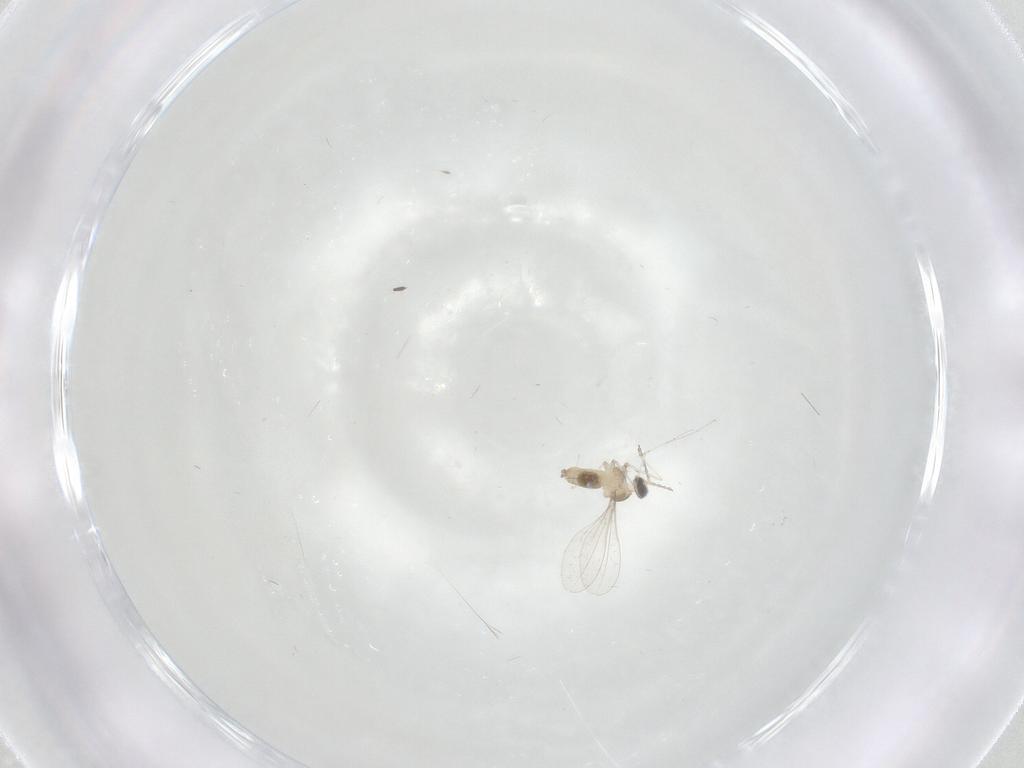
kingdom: Animalia
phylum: Arthropoda
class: Insecta
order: Diptera
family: Cecidomyiidae
